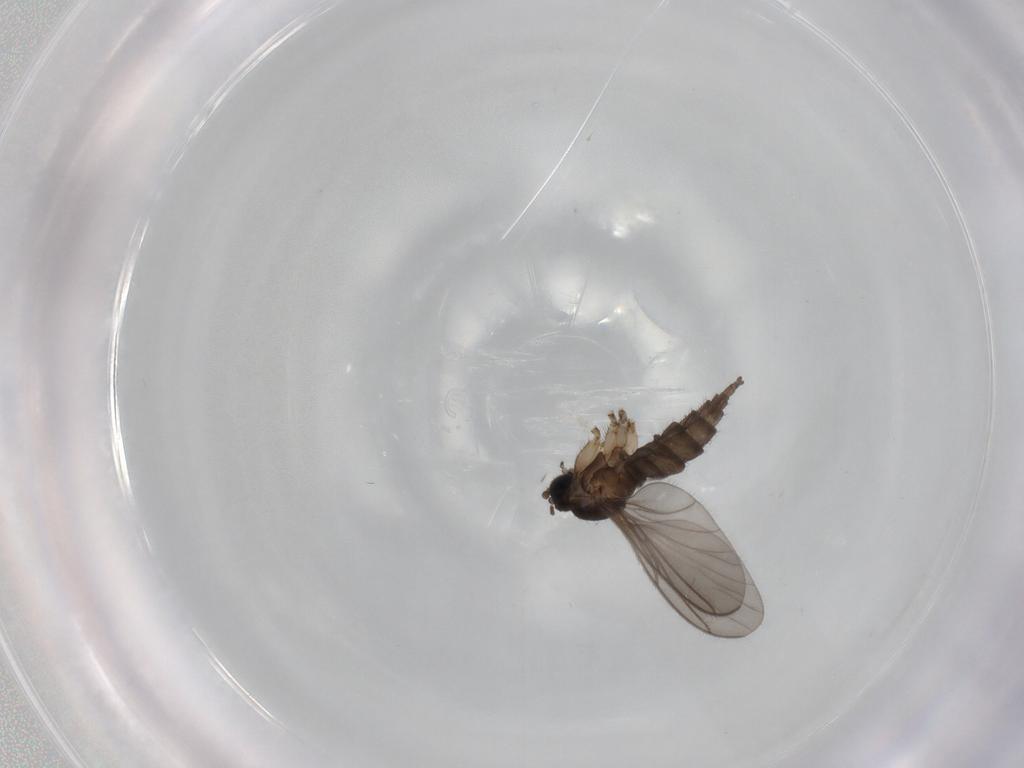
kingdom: Animalia
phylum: Arthropoda
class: Insecta
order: Diptera
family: Sciaridae
